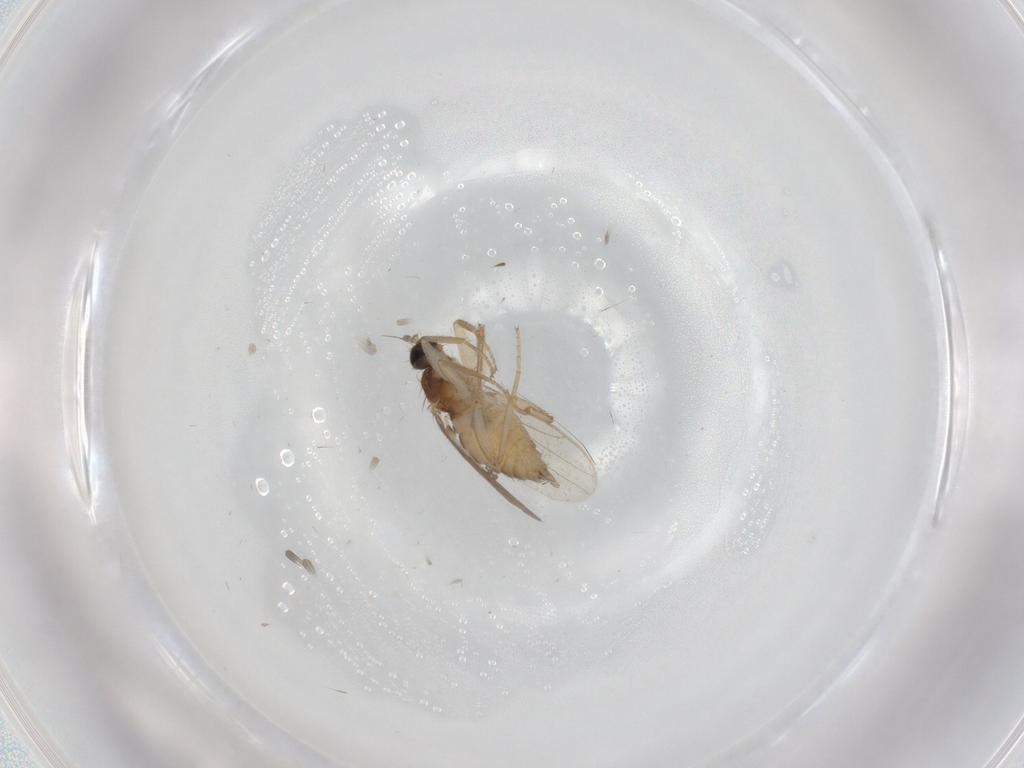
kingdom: Animalia
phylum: Arthropoda
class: Insecta
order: Diptera
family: Hybotidae
